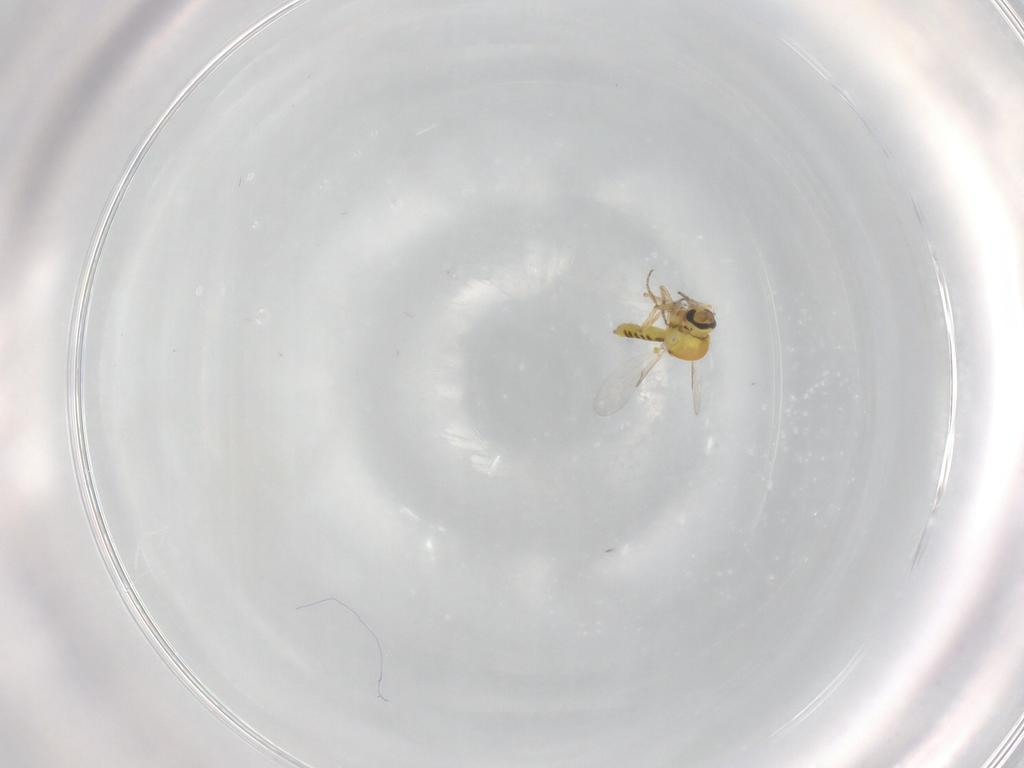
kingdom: Animalia
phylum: Arthropoda
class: Insecta
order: Diptera
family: Ceratopogonidae
